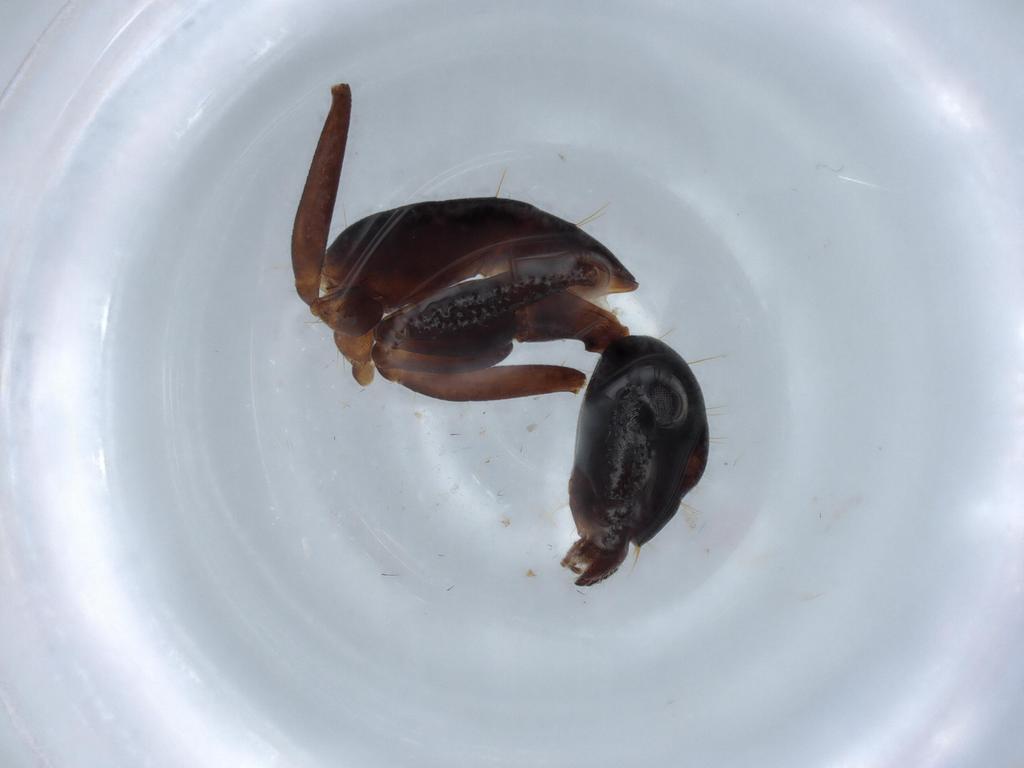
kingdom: Animalia
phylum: Arthropoda
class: Insecta
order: Hymenoptera
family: Formicidae
